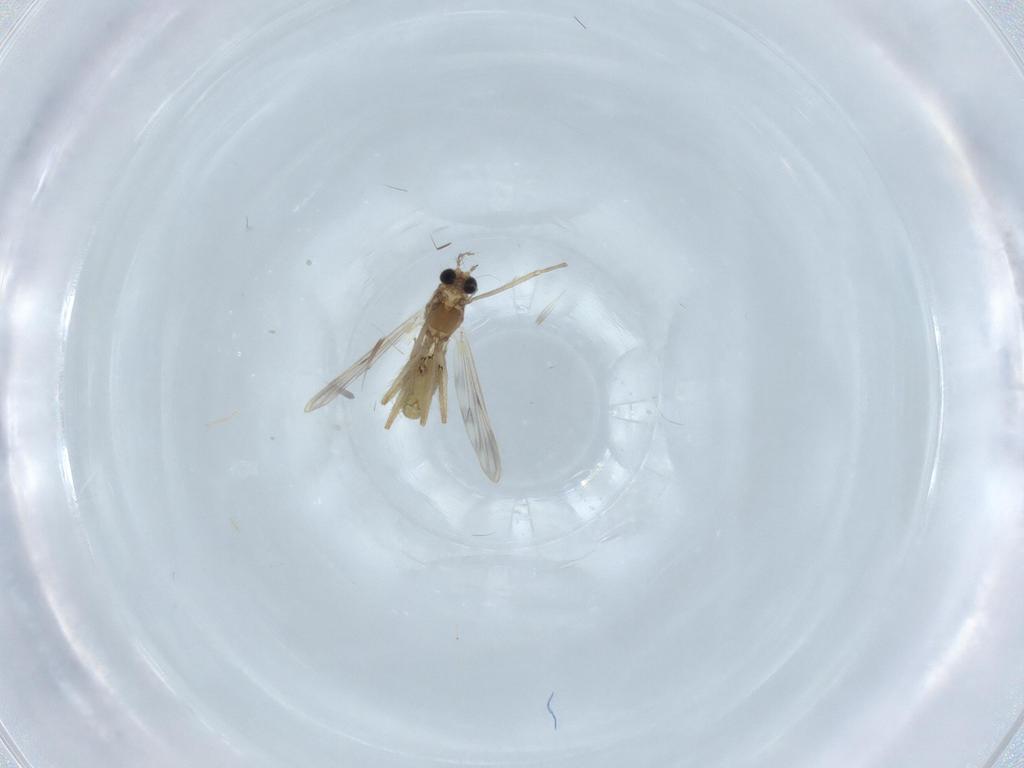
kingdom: Animalia
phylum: Arthropoda
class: Insecta
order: Diptera
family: Chironomidae
